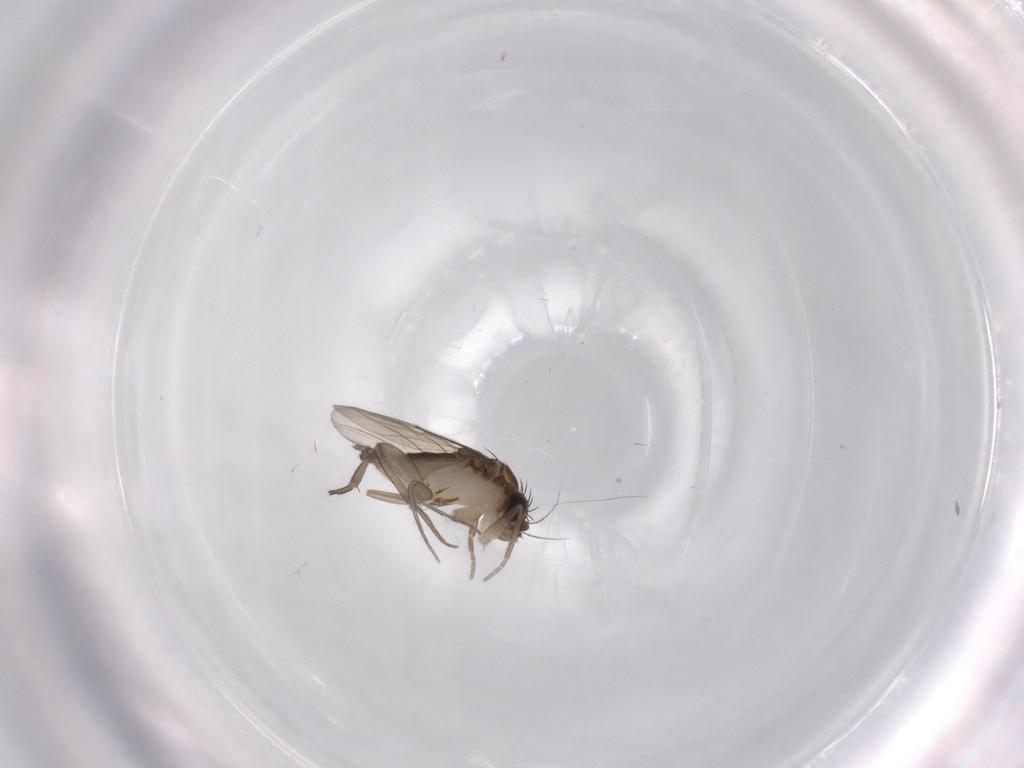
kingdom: Animalia
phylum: Arthropoda
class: Insecta
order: Diptera
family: Phoridae
